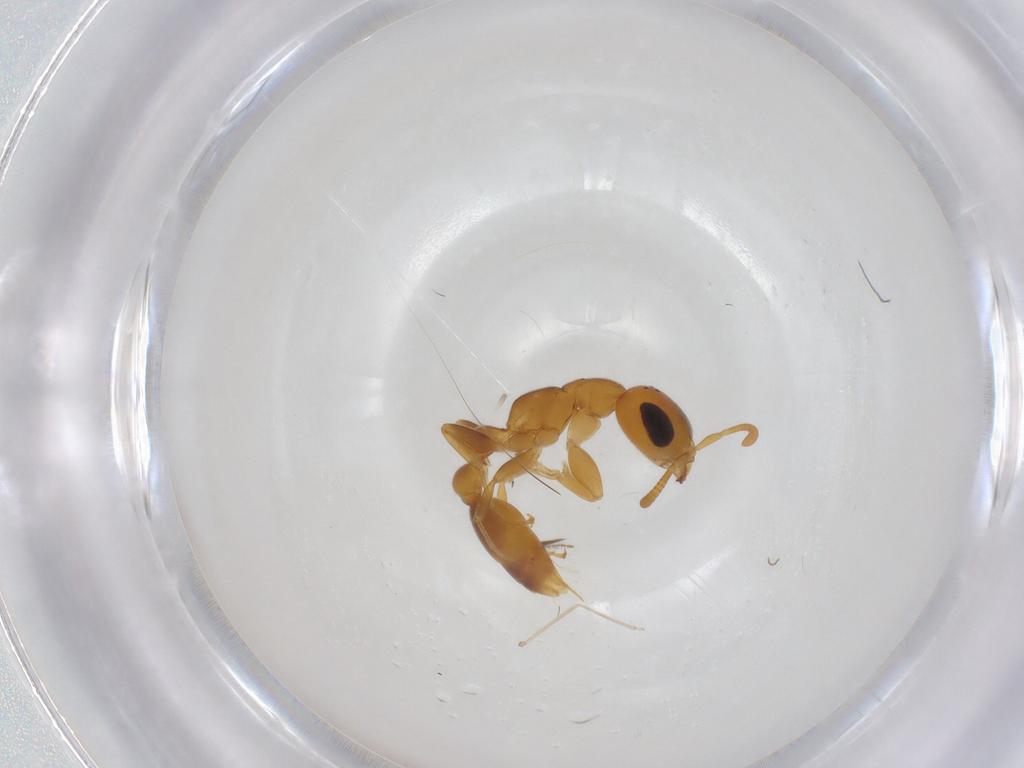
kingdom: Animalia
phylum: Arthropoda
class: Insecta
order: Hymenoptera
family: Formicidae
